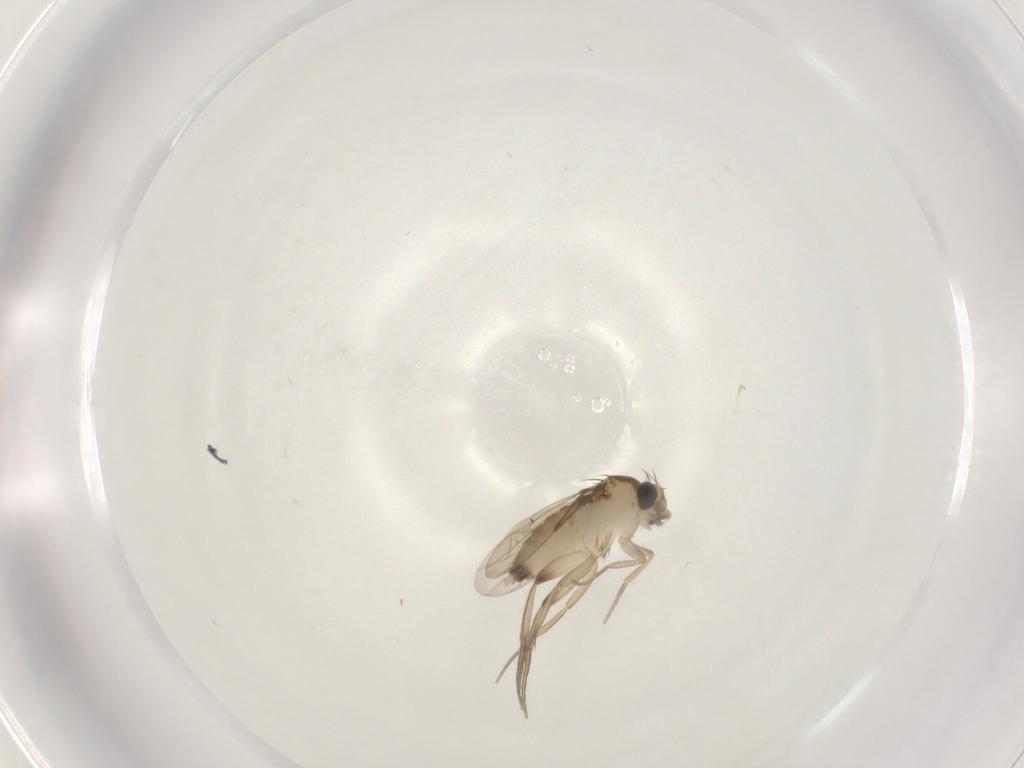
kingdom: Animalia
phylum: Arthropoda
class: Insecta
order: Diptera
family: Phoridae
